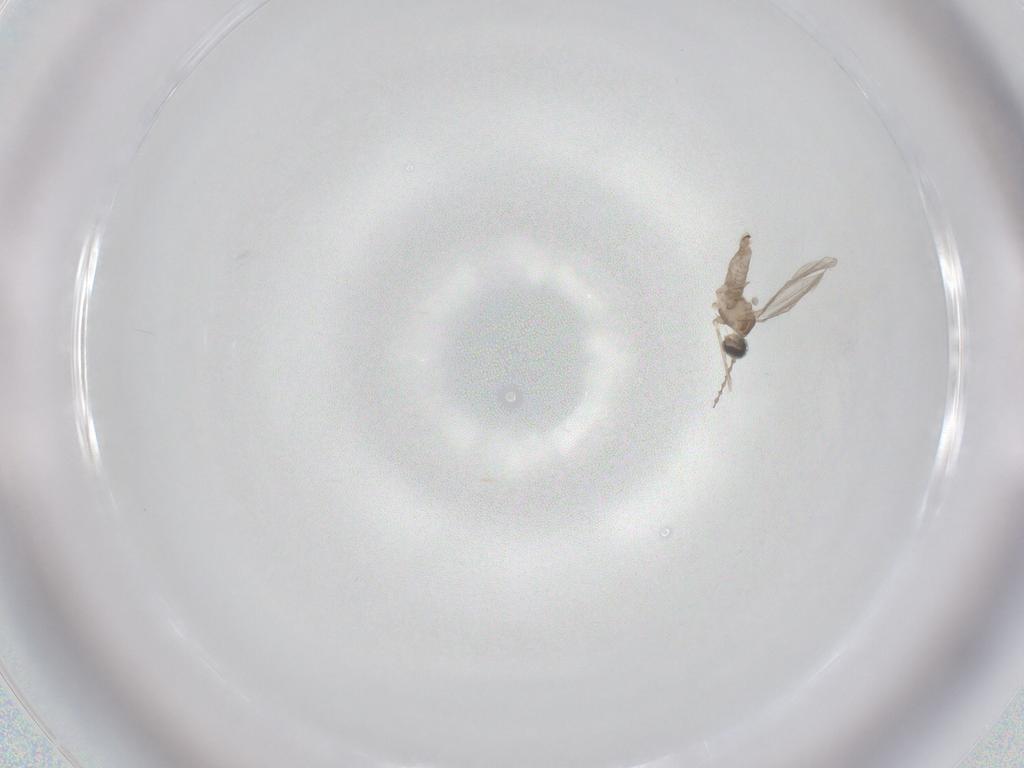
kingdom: Animalia
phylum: Arthropoda
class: Insecta
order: Diptera
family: Cecidomyiidae
